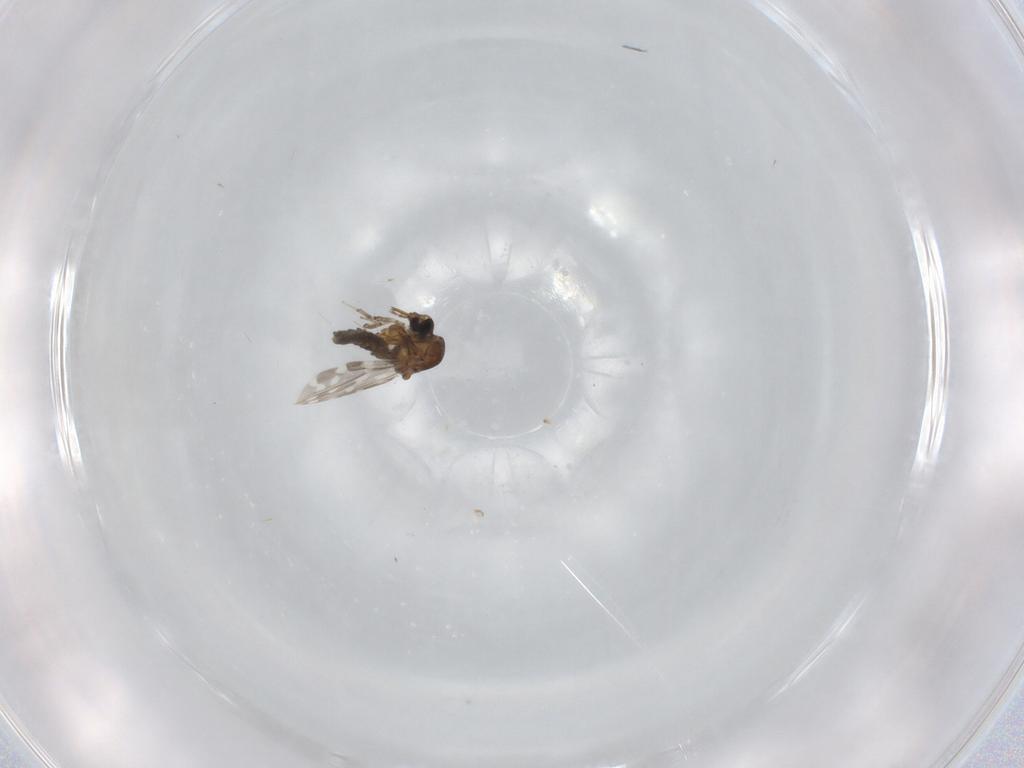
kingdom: Animalia
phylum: Arthropoda
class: Insecta
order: Diptera
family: Ceratopogonidae
